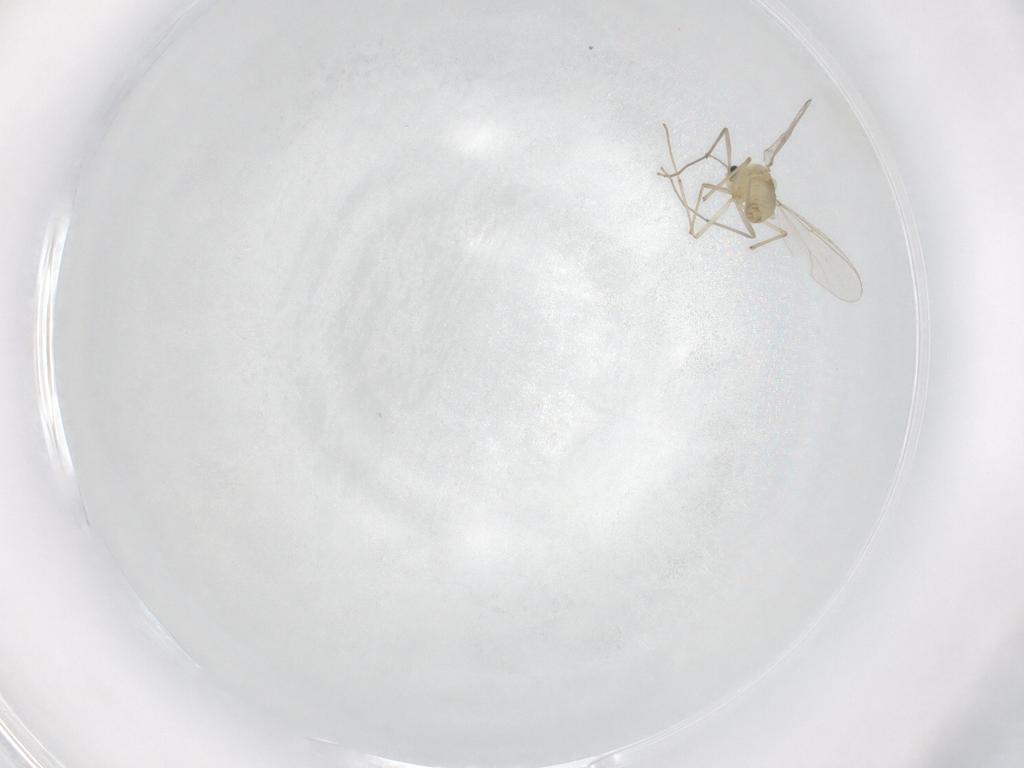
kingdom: Animalia
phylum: Arthropoda
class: Insecta
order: Diptera
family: Chironomidae
